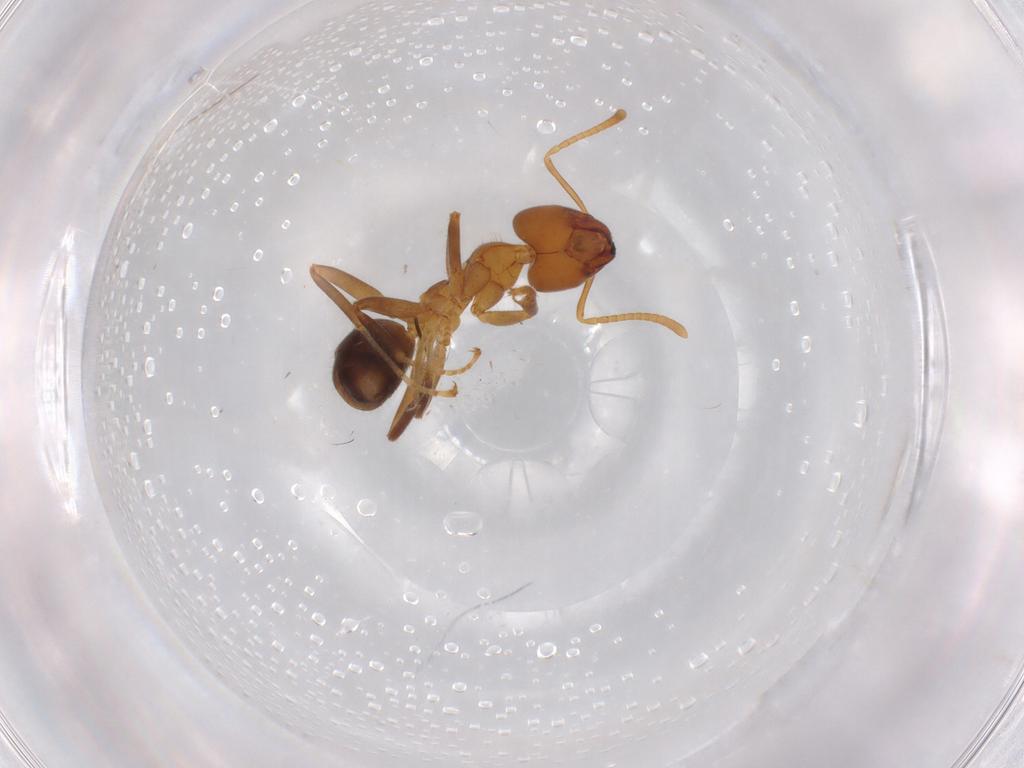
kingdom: Animalia
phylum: Arthropoda
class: Insecta
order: Hymenoptera
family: Formicidae
